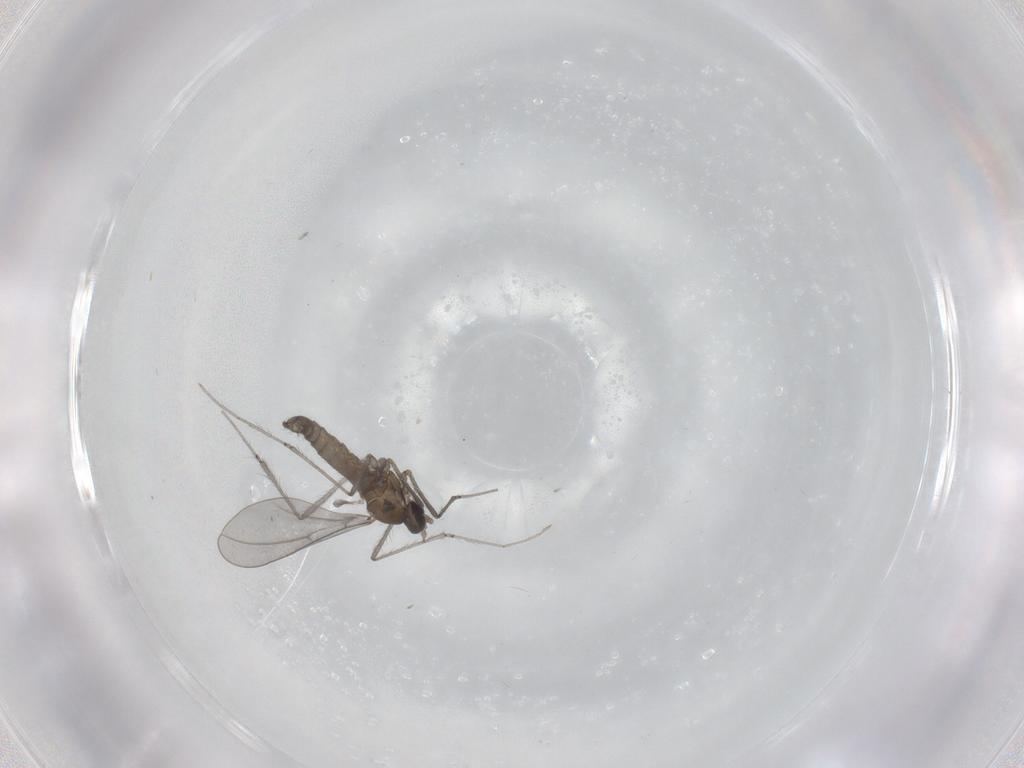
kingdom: Animalia
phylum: Arthropoda
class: Insecta
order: Diptera
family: Cecidomyiidae
